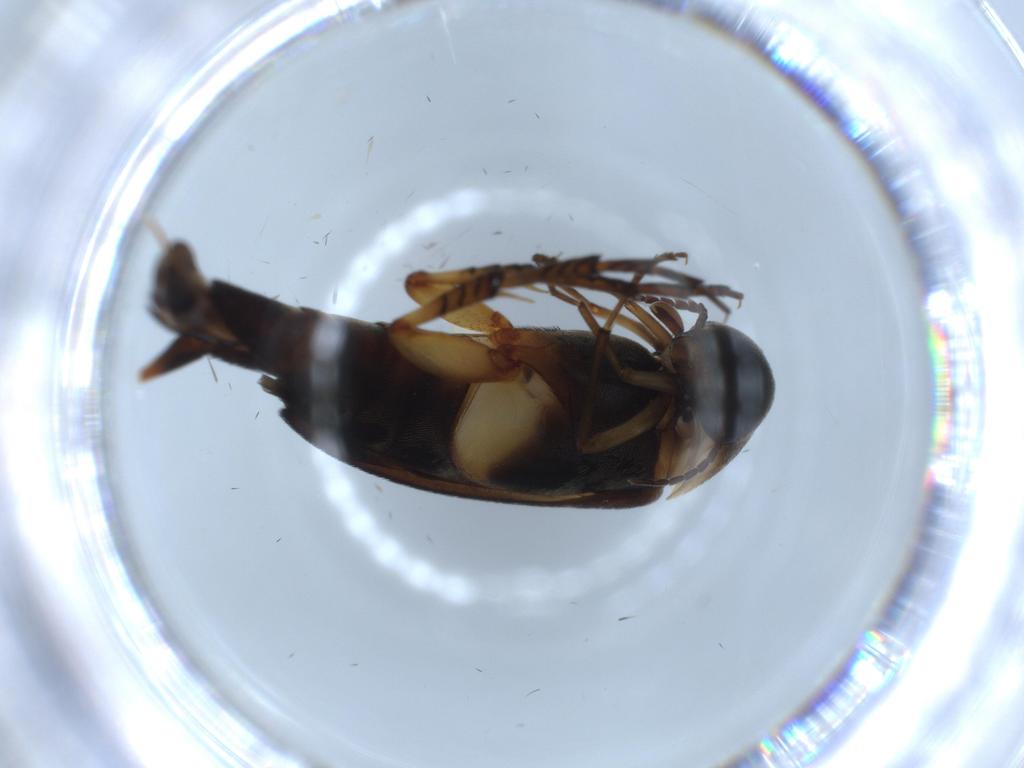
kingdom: Animalia
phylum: Arthropoda
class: Insecta
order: Coleoptera
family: Mordellidae
